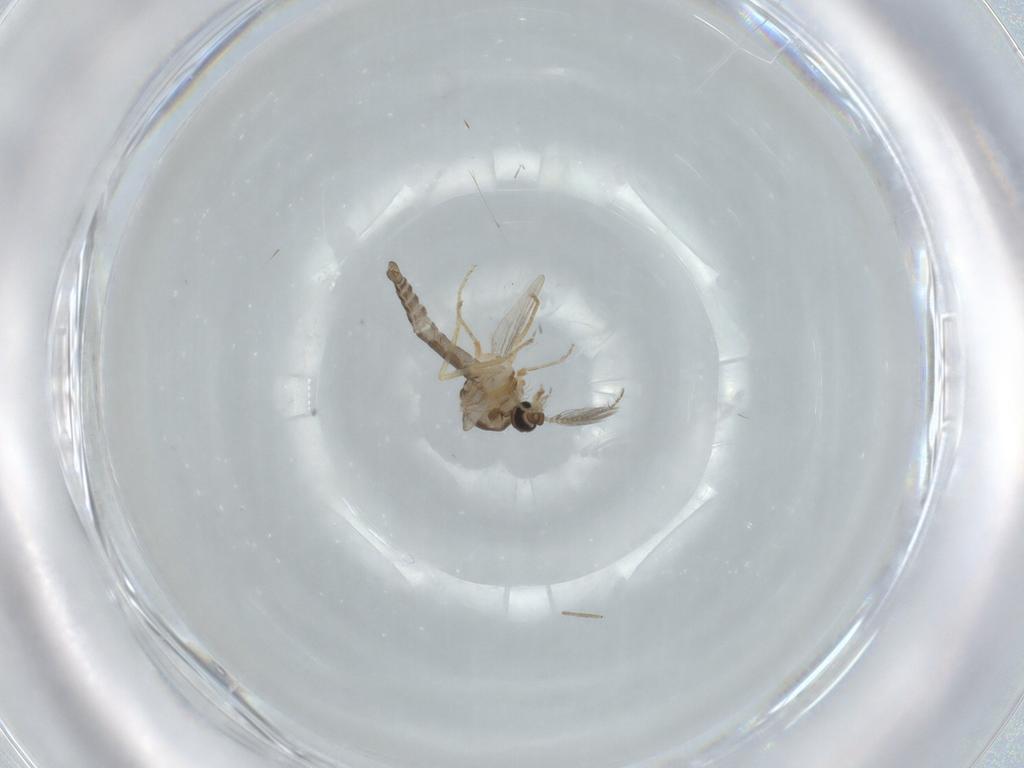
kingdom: Animalia
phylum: Arthropoda
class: Insecta
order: Diptera
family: Ceratopogonidae
